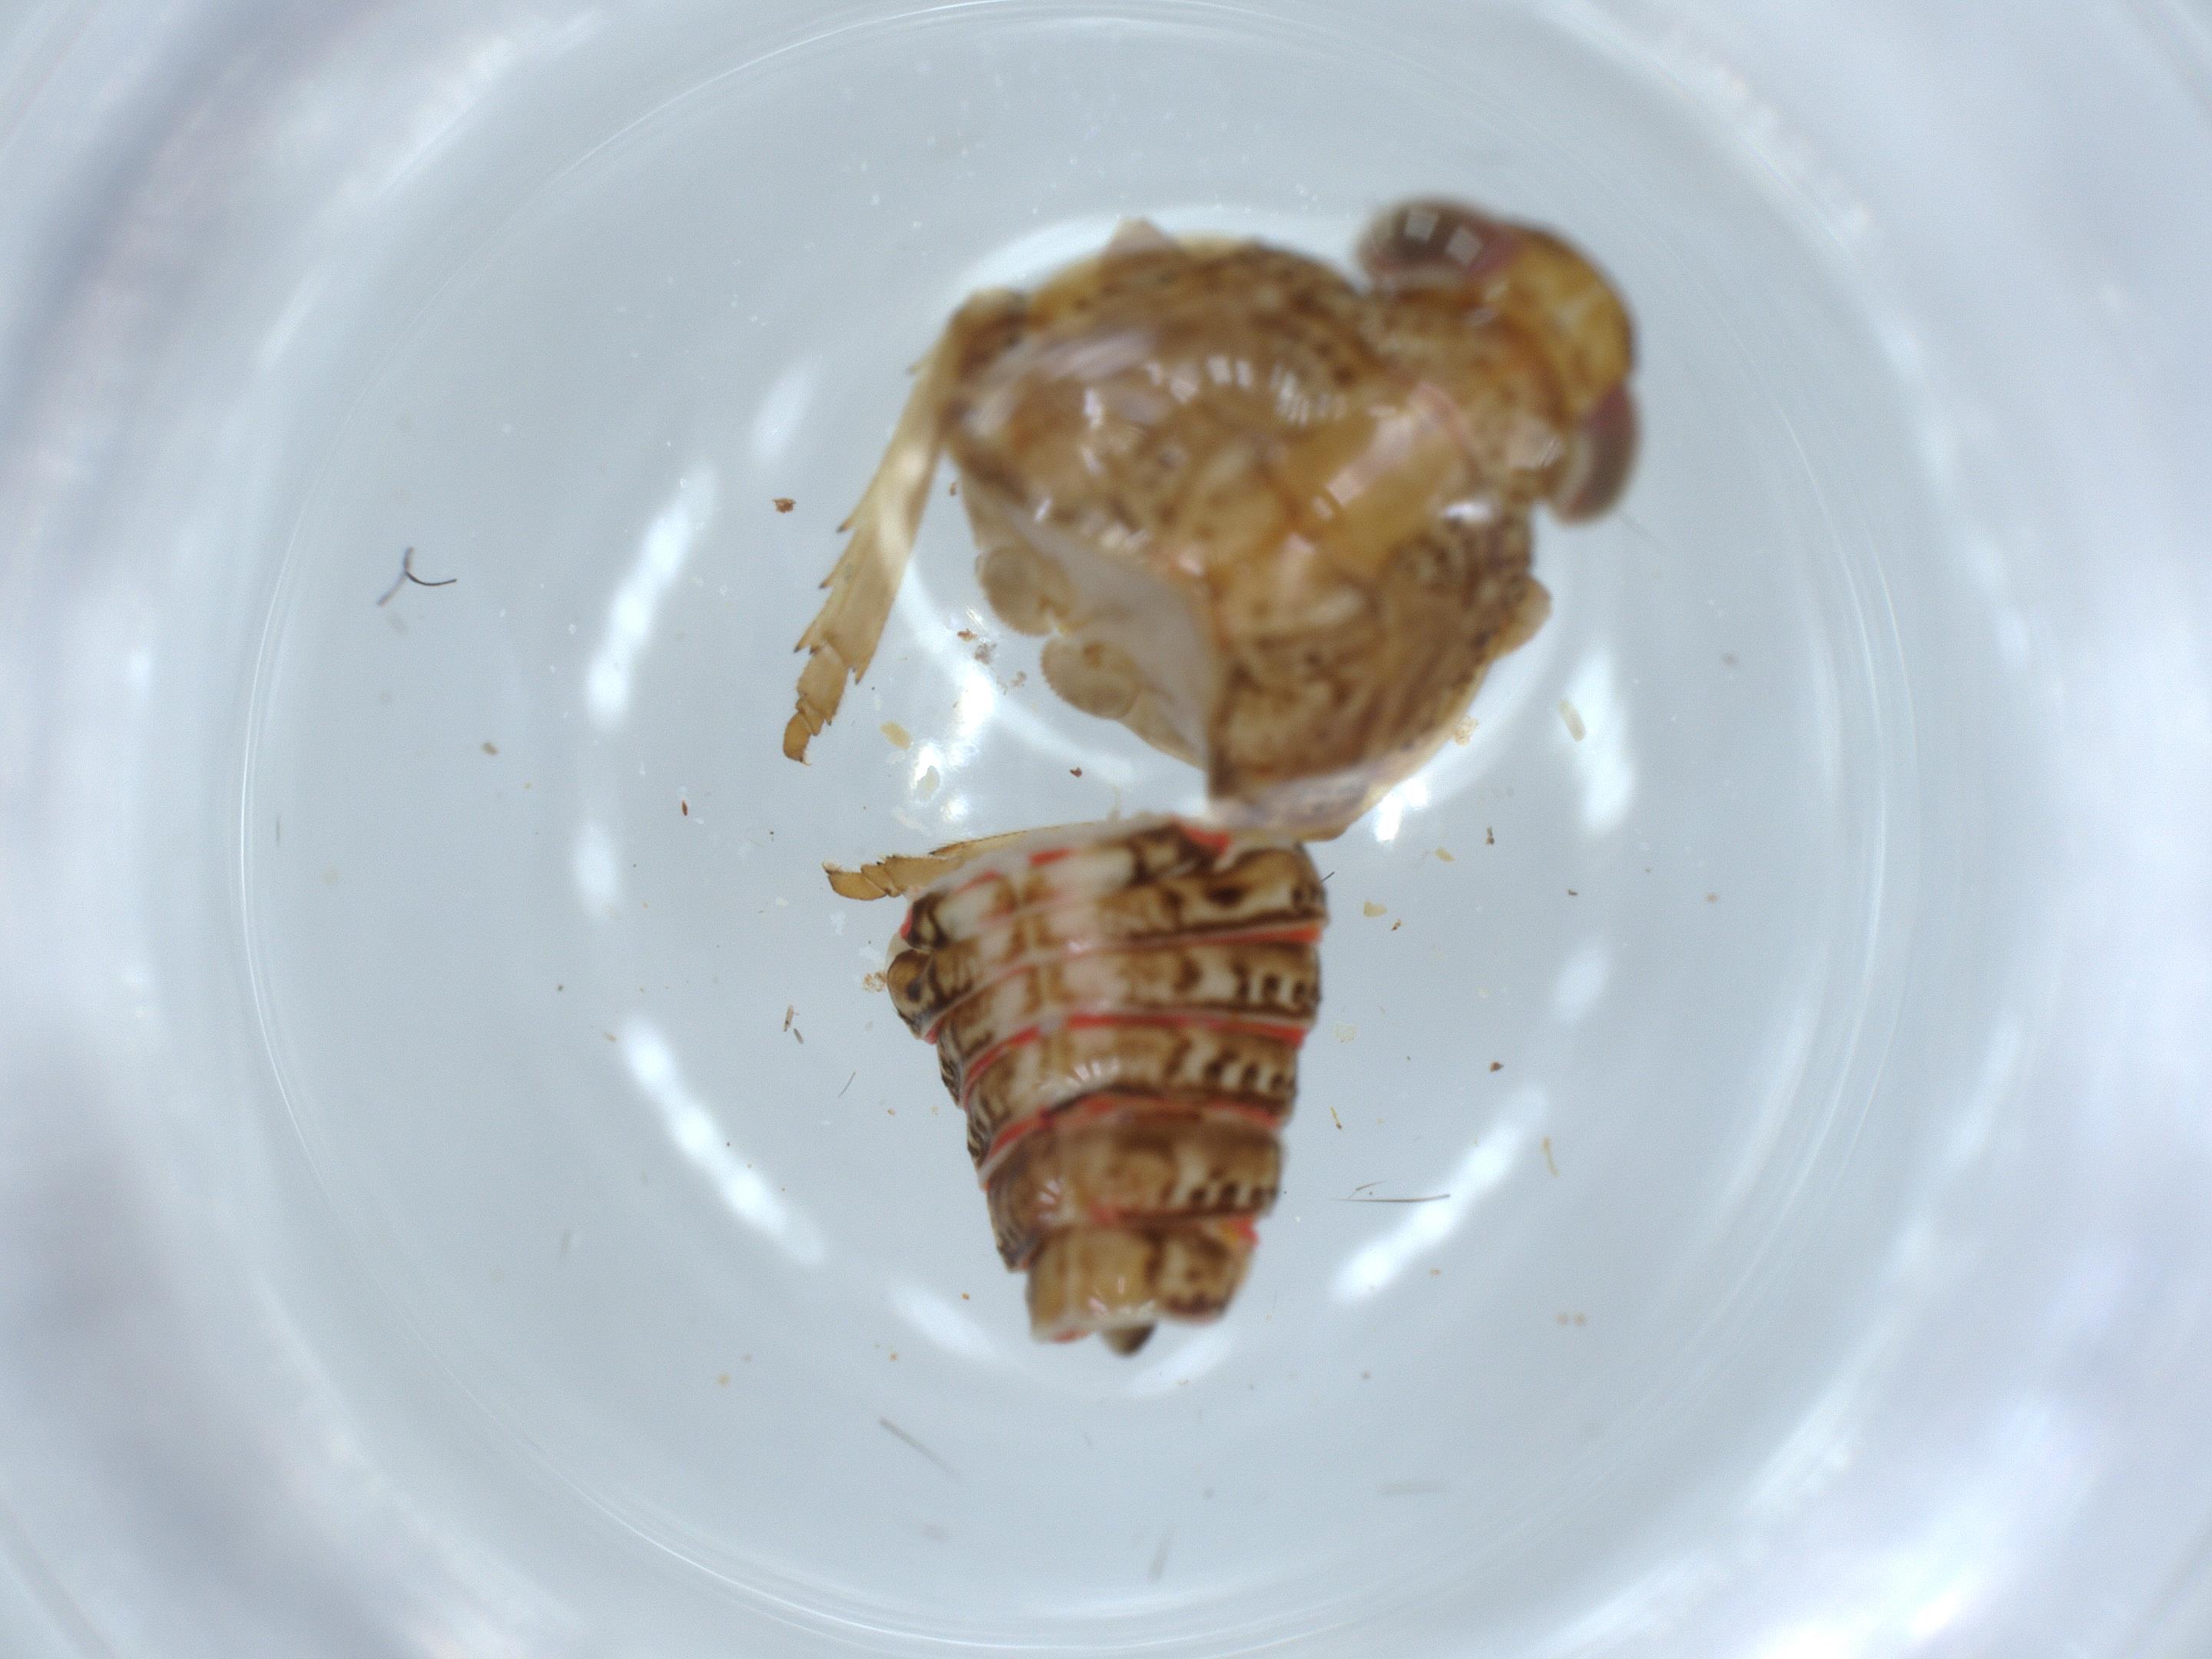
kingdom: Animalia
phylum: Arthropoda
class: Insecta
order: Hemiptera
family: Issidae
